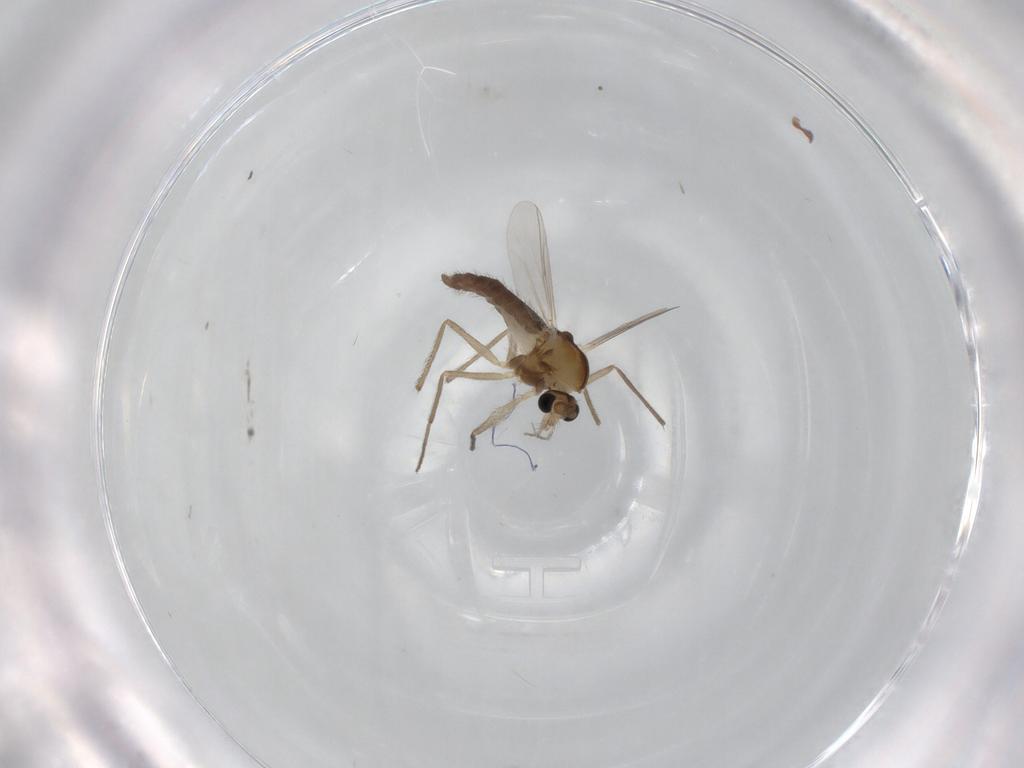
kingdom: Animalia
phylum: Arthropoda
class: Insecta
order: Diptera
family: Chironomidae
